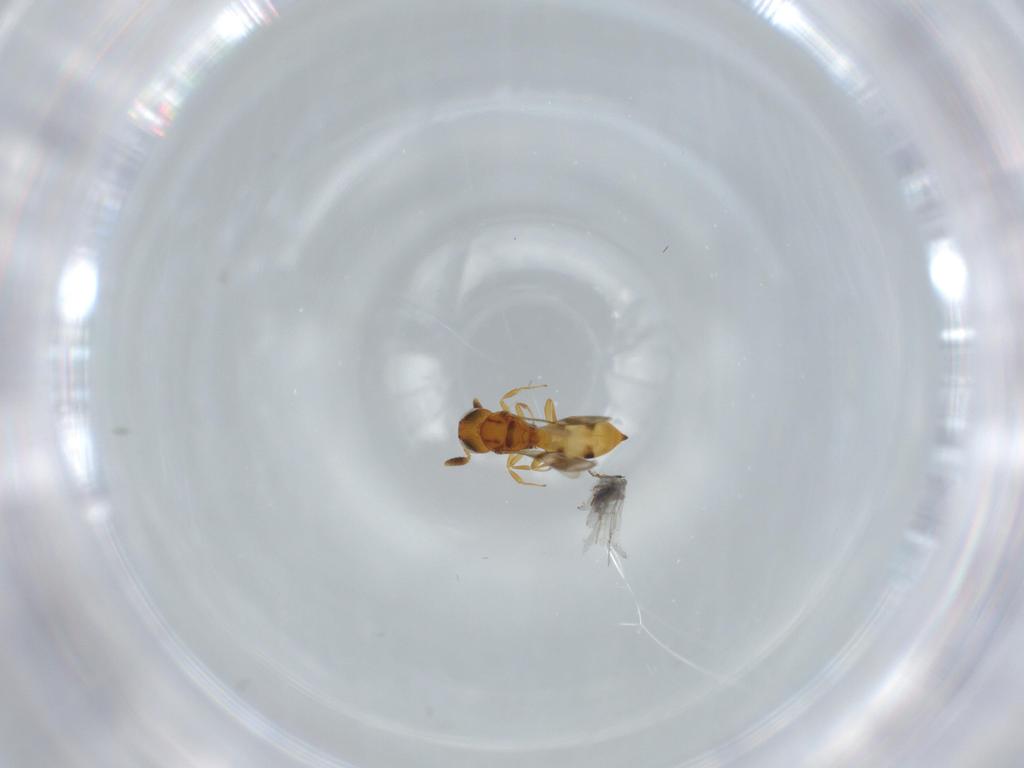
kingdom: Animalia
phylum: Arthropoda
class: Insecta
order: Hymenoptera
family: Scelionidae
